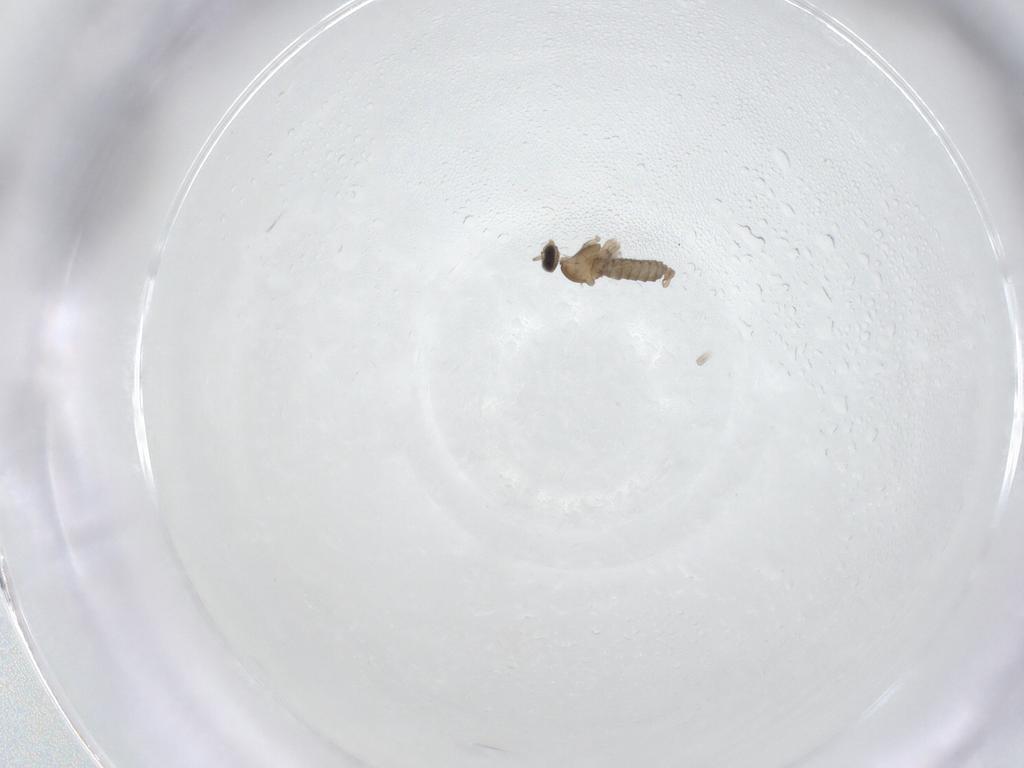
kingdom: Animalia
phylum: Arthropoda
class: Insecta
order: Diptera
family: Cecidomyiidae
